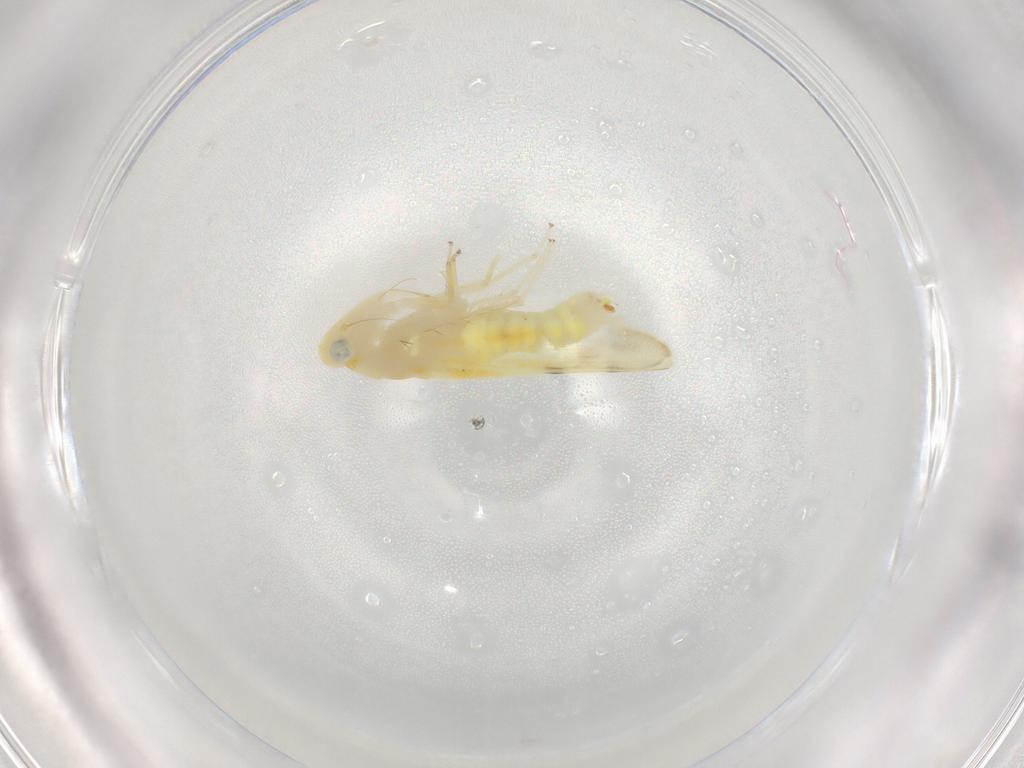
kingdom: Animalia
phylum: Arthropoda
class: Insecta
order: Hemiptera
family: Cicadellidae
